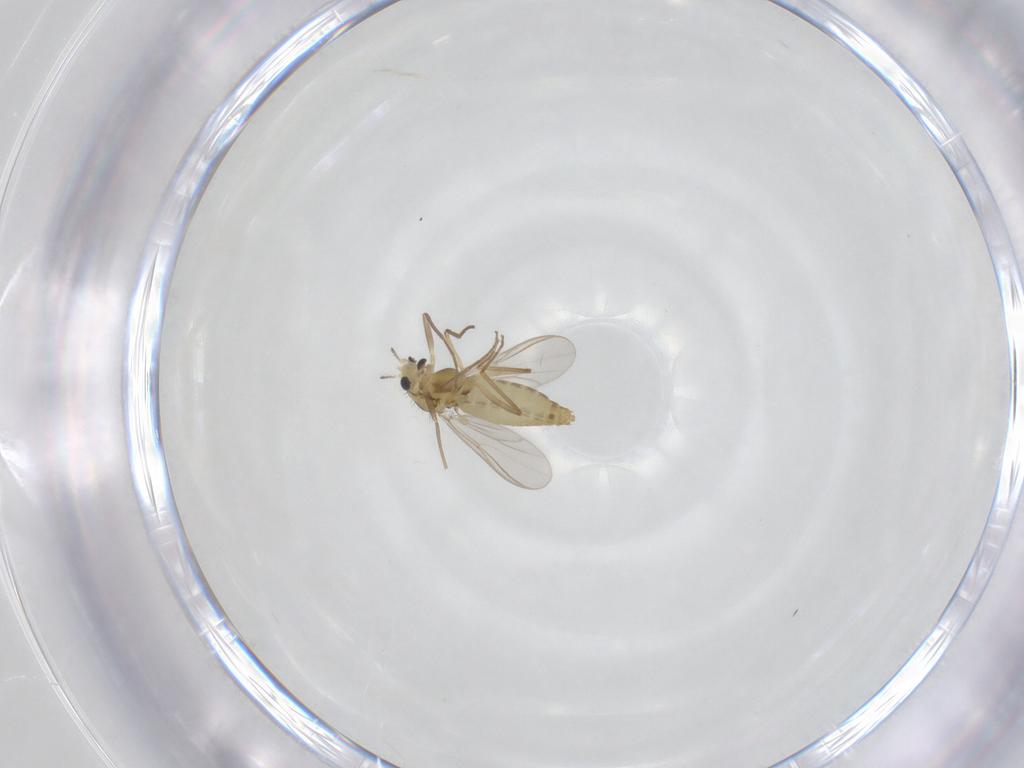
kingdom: Animalia
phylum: Arthropoda
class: Insecta
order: Diptera
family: Chironomidae
